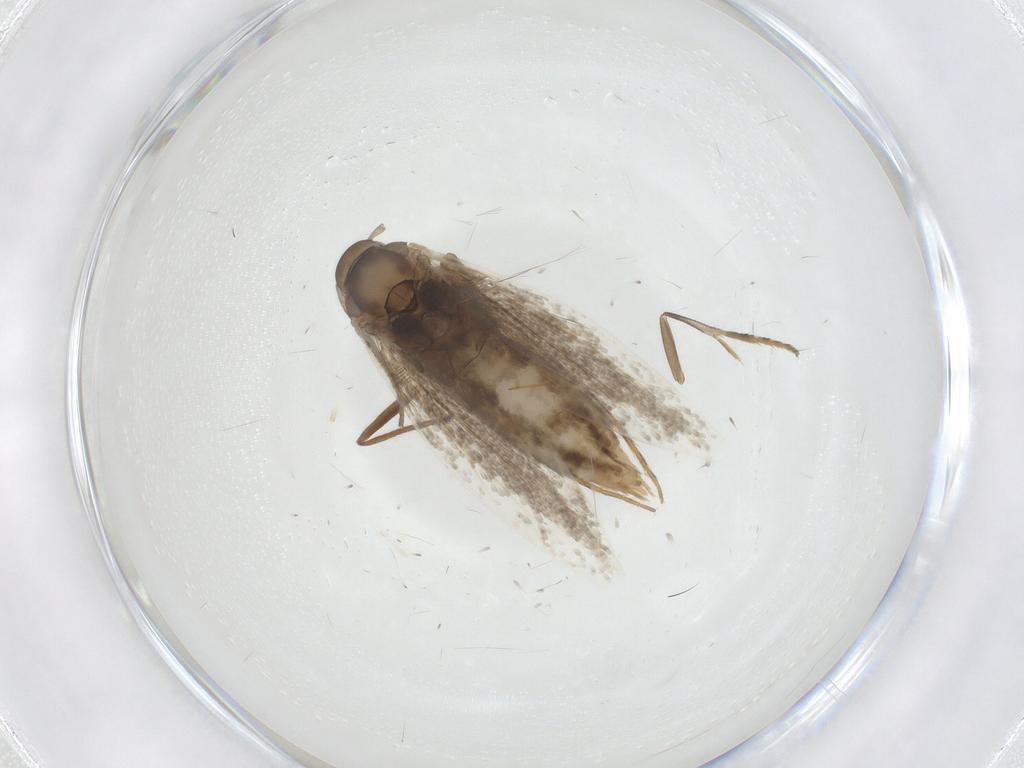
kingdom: Animalia
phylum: Arthropoda
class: Insecta
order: Lepidoptera
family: Elachistidae
